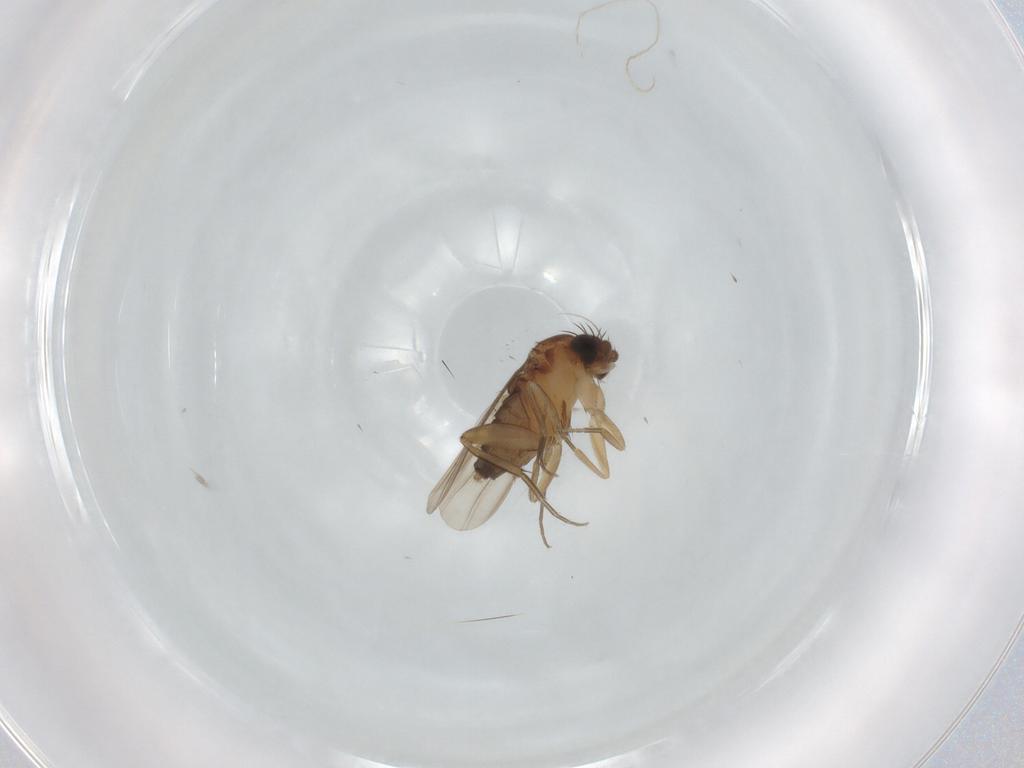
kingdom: Animalia
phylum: Arthropoda
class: Insecta
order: Diptera
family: Phoridae
